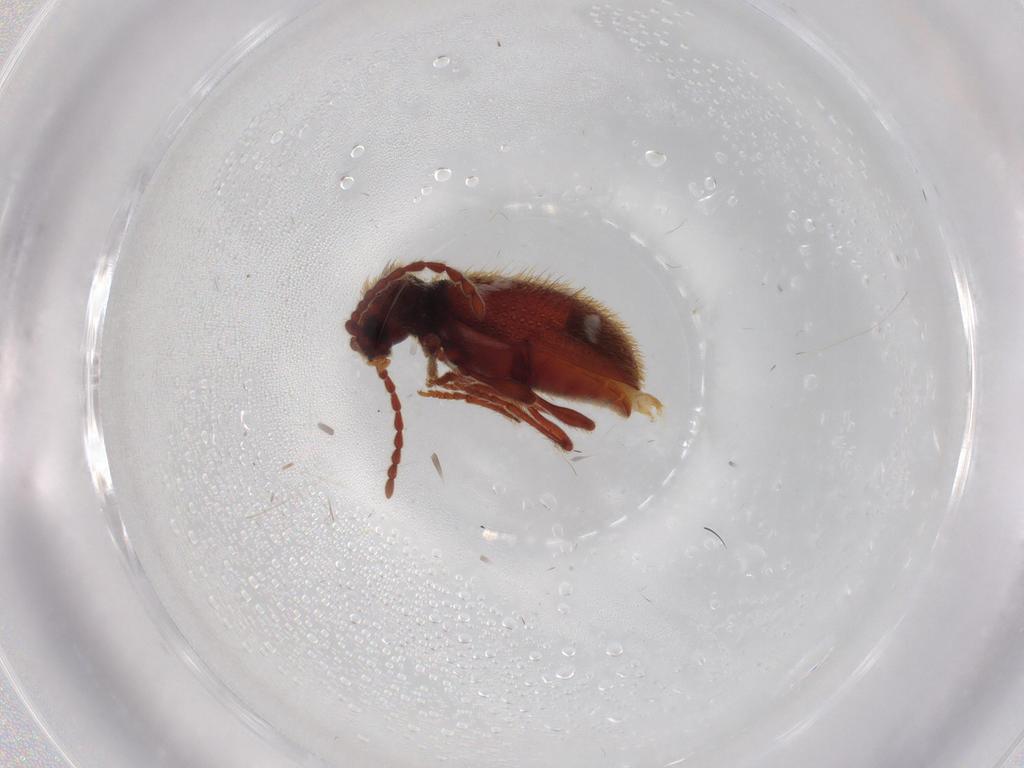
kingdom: Animalia
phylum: Arthropoda
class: Insecta
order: Coleoptera
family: Ptinidae
